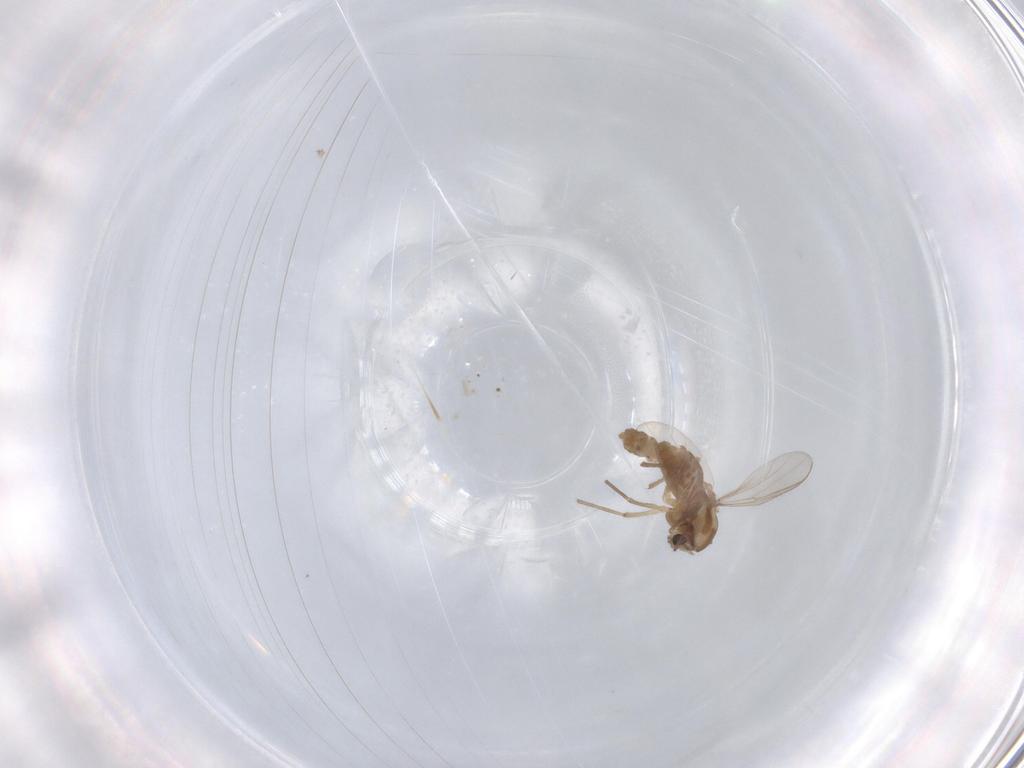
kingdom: Animalia
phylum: Arthropoda
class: Insecta
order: Diptera
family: Chironomidae
